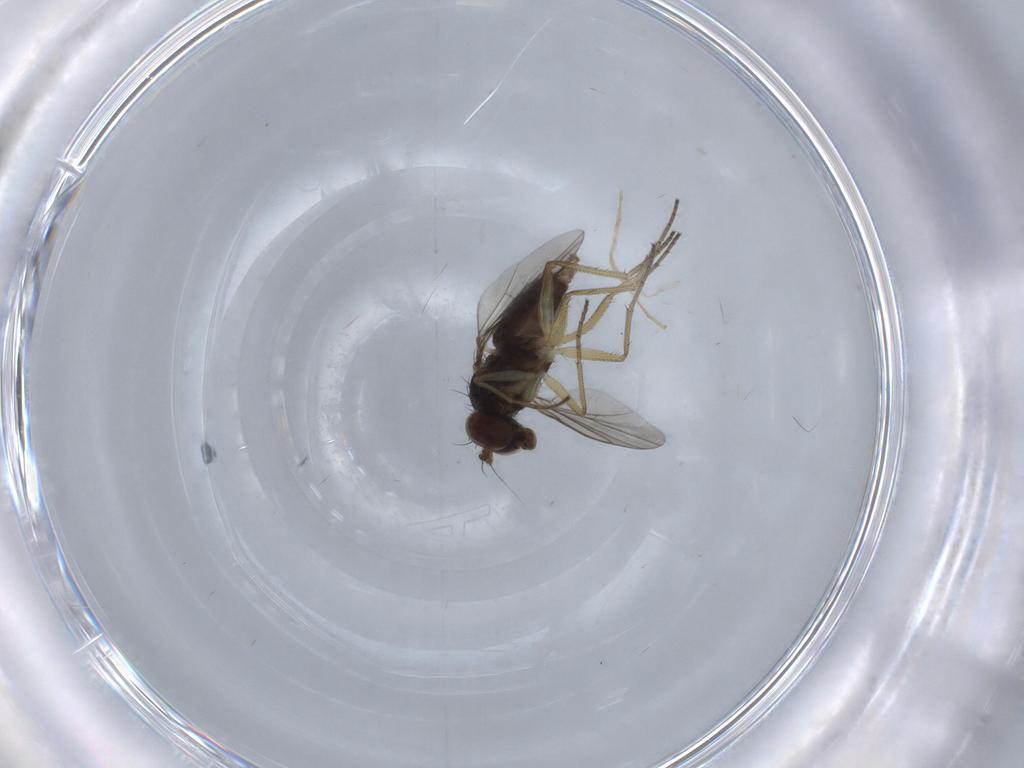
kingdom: Animalia
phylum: Arthropoda
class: Insecta
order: Diptera
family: Dolichopodidae
